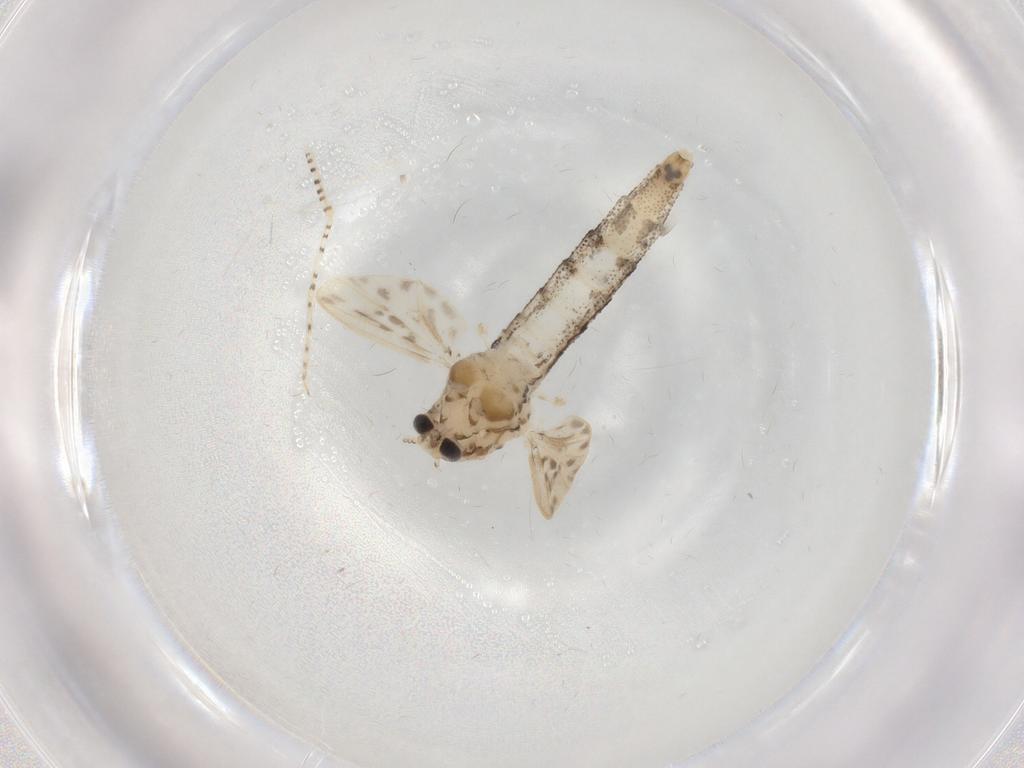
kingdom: Animalia
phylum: Arthropoda
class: Insecta
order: Diptera
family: Chaoboridae
